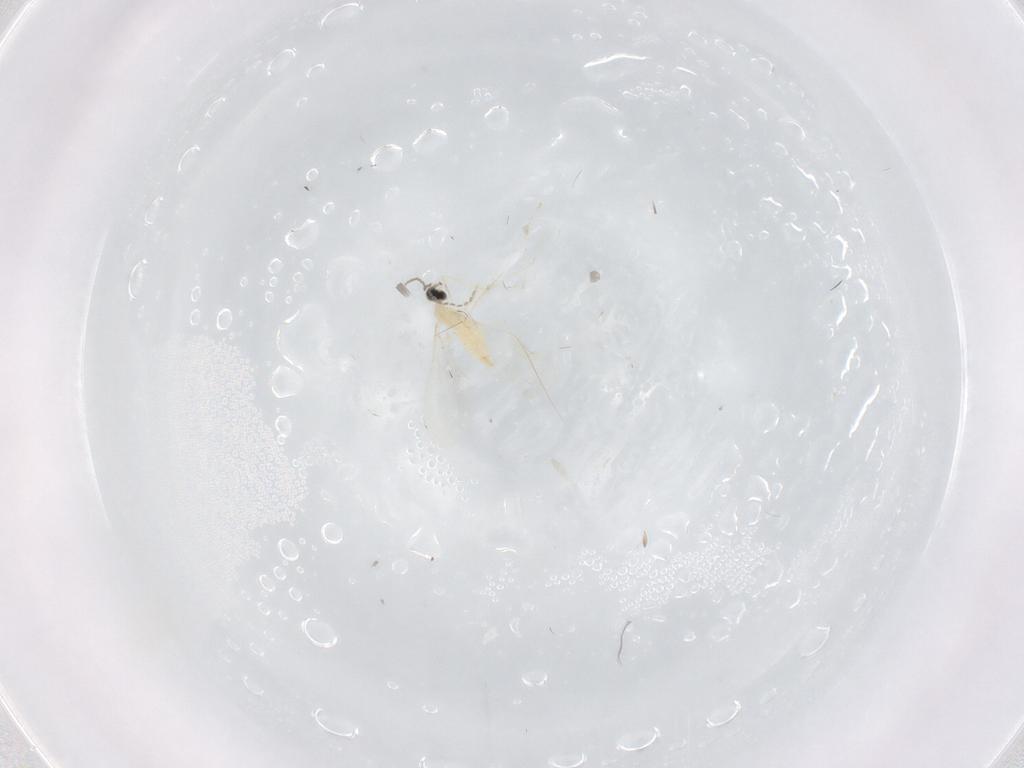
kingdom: Animalia
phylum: Arthropoda
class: Insecta
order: Diptera
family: Cecidomyiidae
